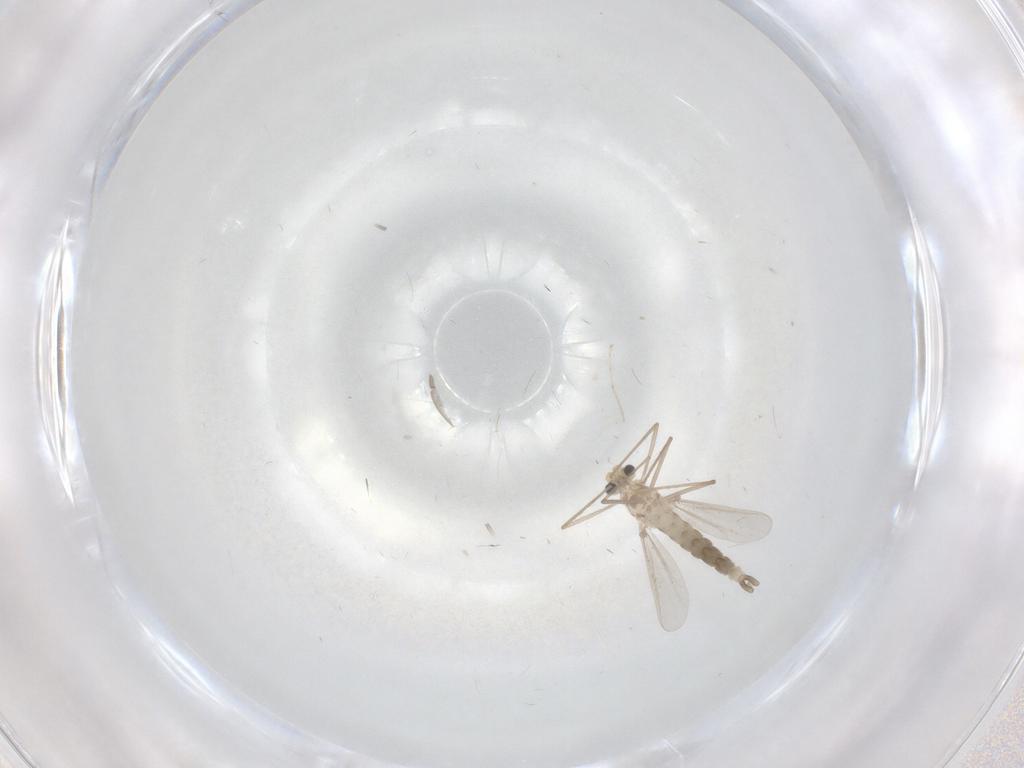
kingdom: Animalia
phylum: Arthropoda
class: Insecta
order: Diptera
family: Chironomidae
